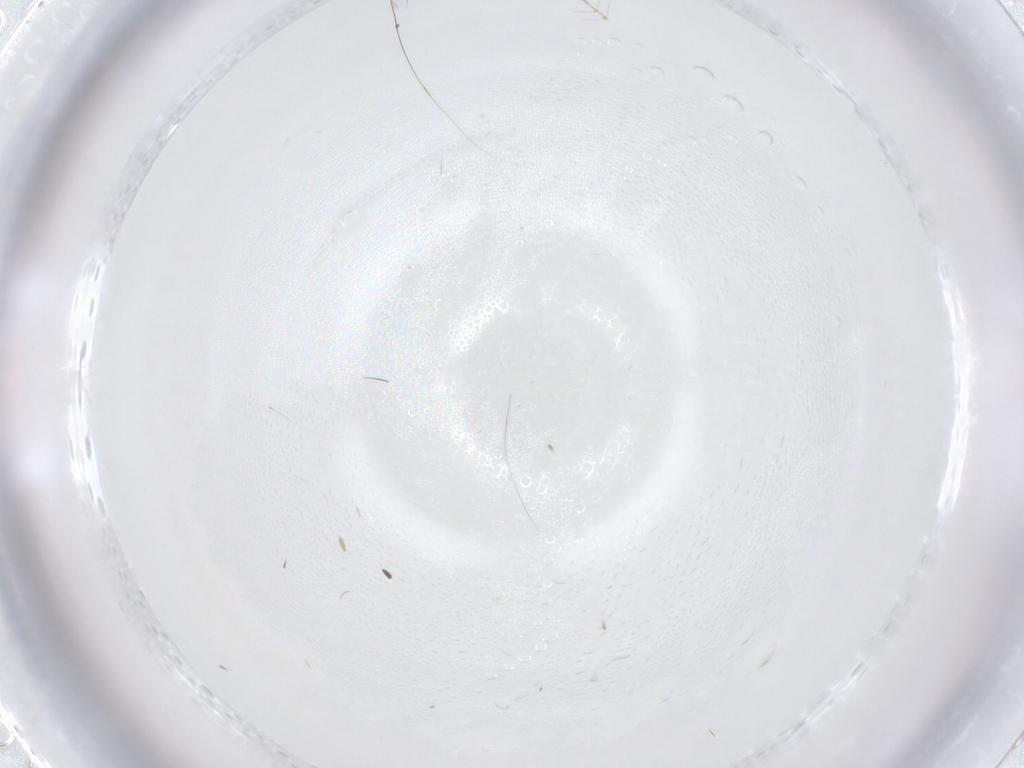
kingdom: Animalia
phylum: Arthropoda
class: Insecta
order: Diptera
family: Cecidomyiidae
